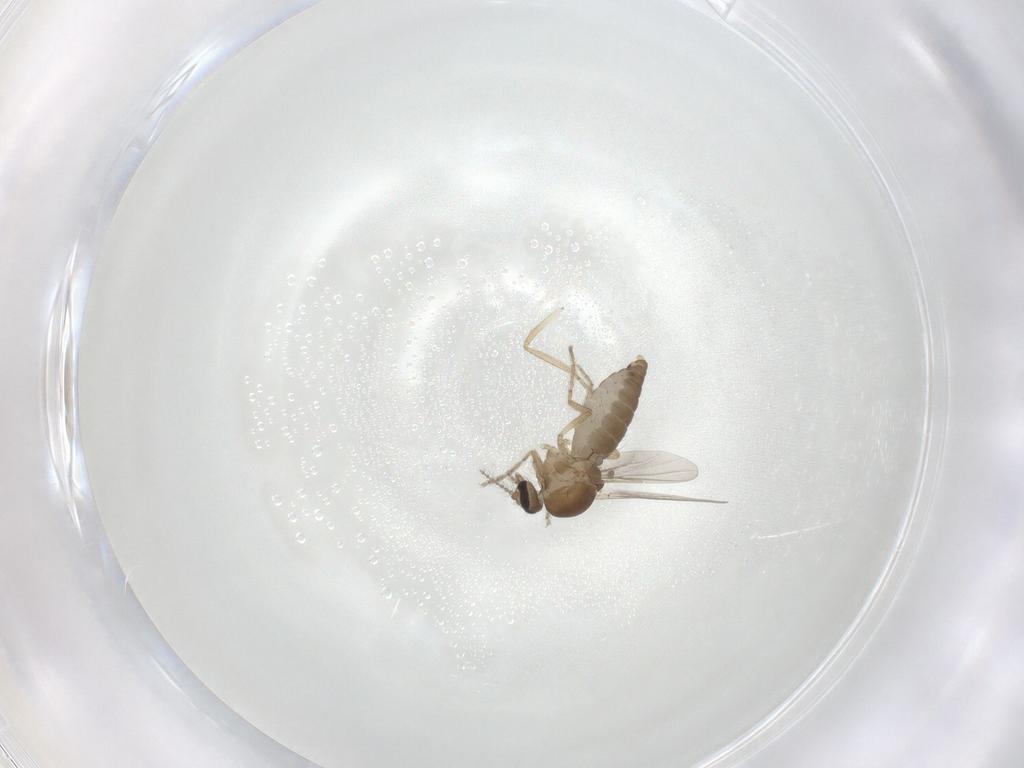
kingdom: Animalia
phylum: Arthropoda
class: Insecta
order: Diptera
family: Ceratopogonidae
